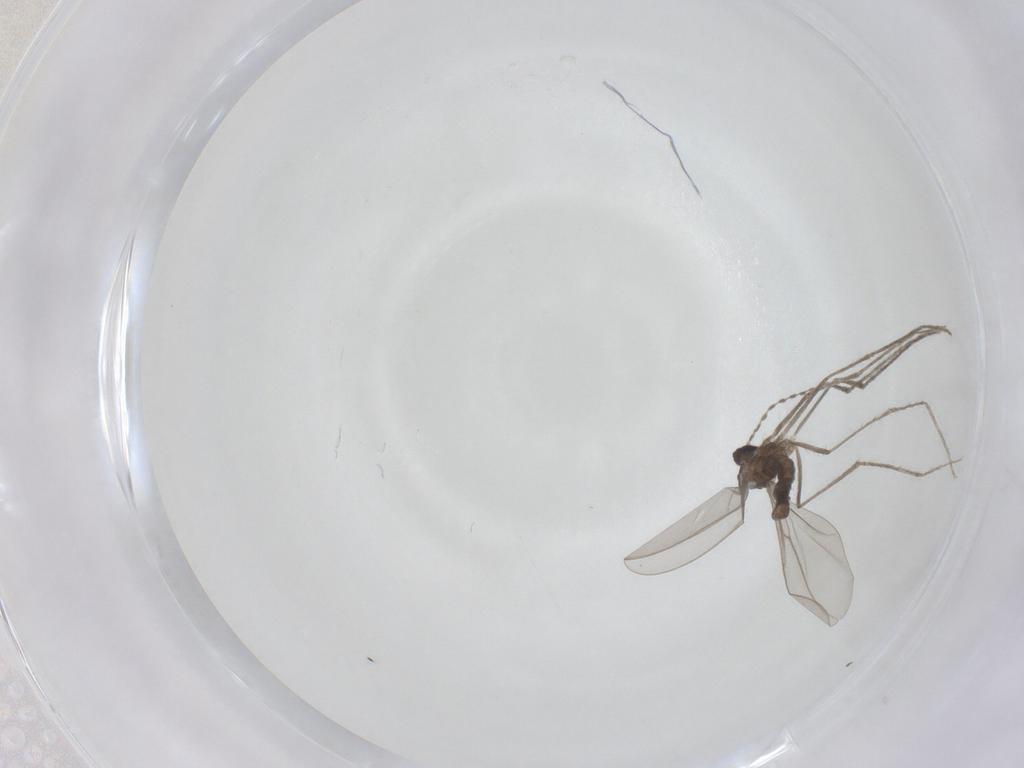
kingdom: Animalia
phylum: Arthropoda
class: Insecta
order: Diptera
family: Cecidomyiidae
